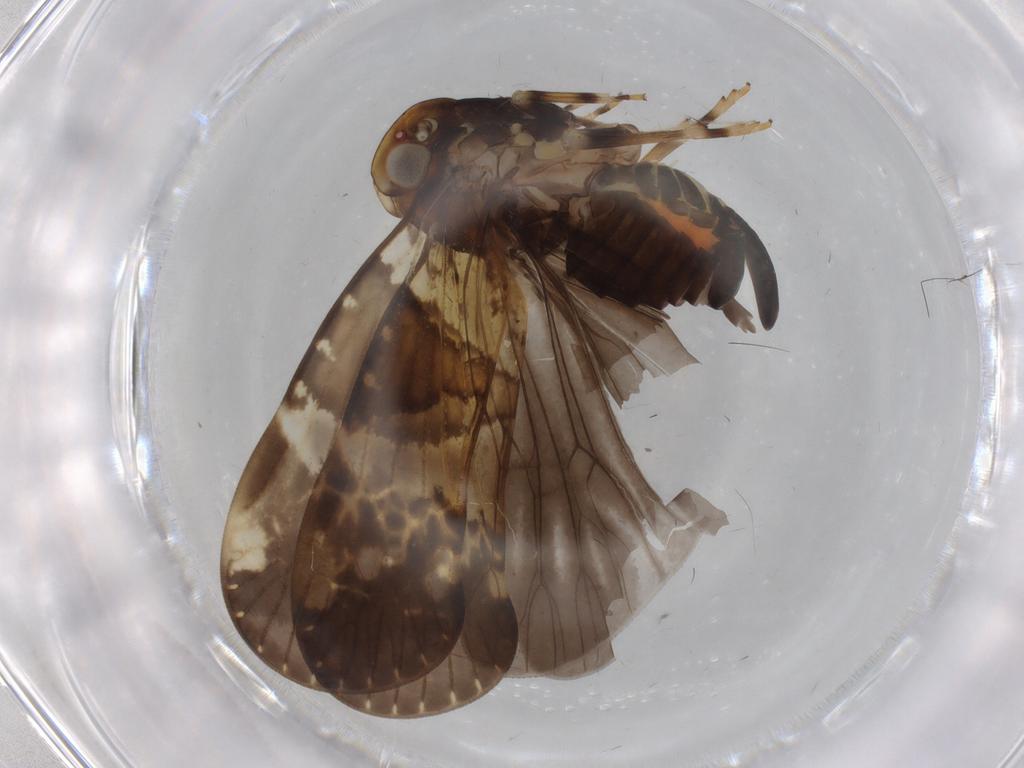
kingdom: Animalia
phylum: Arthropoda
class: Insecta
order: Hemiptera
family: Cixiidae
